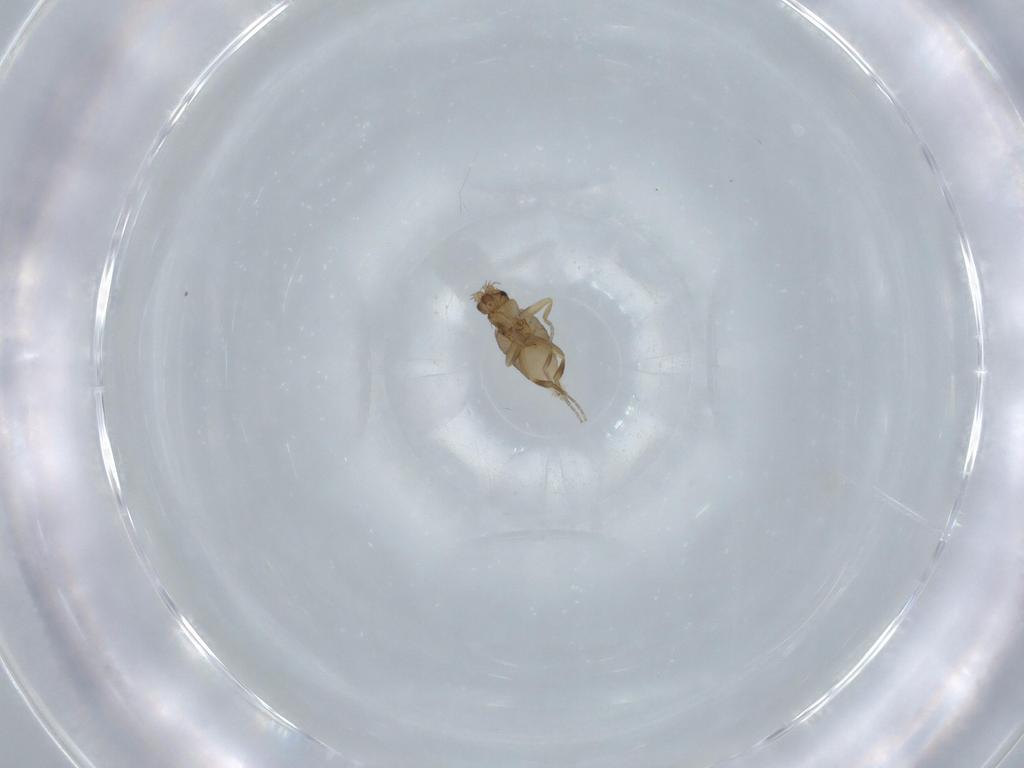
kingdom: Animalia
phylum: Arthropoda
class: Insecta
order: Diptera
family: Phoridae
